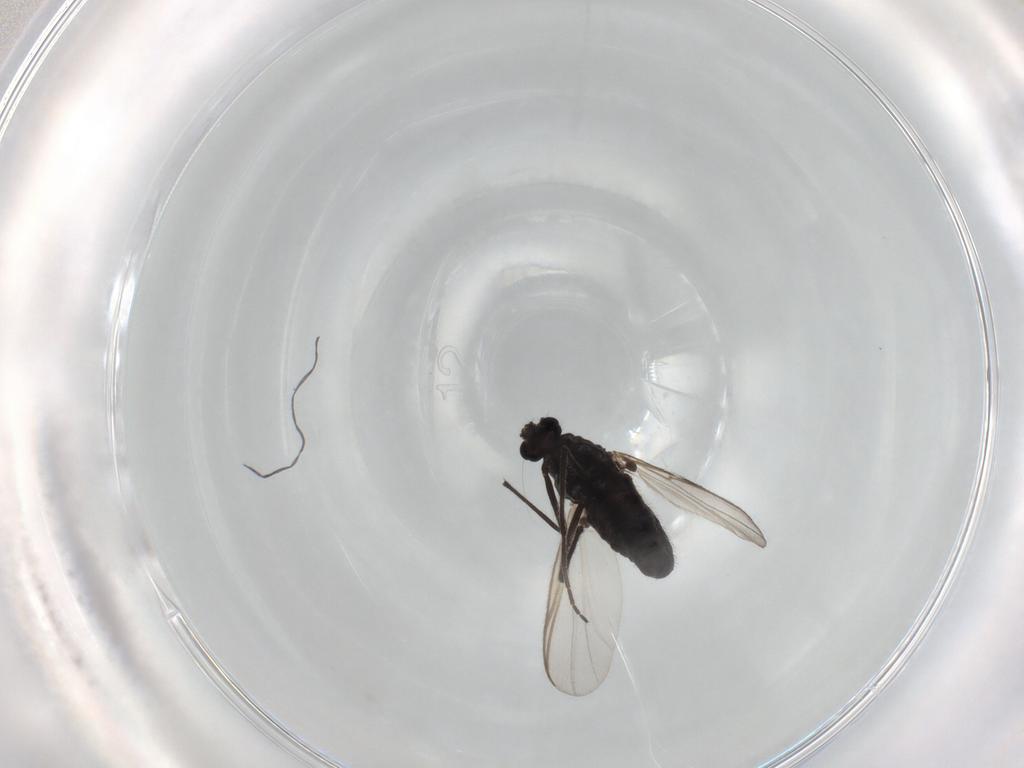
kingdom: Animalia
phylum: Arthropoda
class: Insecta
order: Diptera
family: Chironomidae
